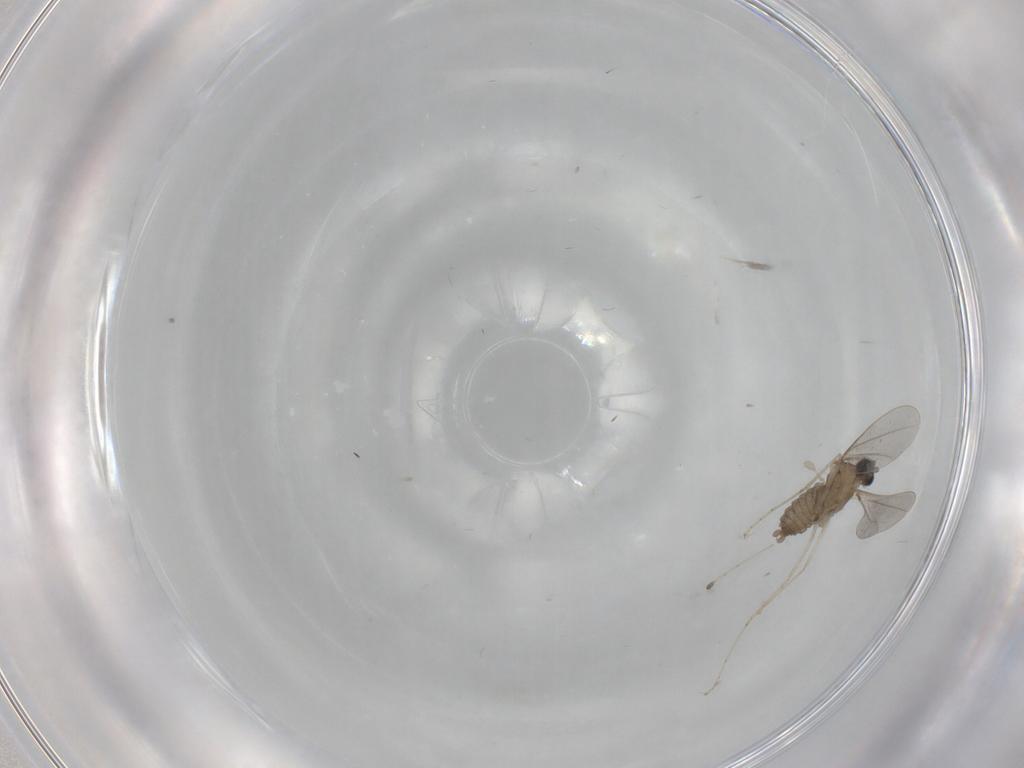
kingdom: Animalia
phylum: Arthropoda
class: Insecta
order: Diptera
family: Cecidomyiidae
